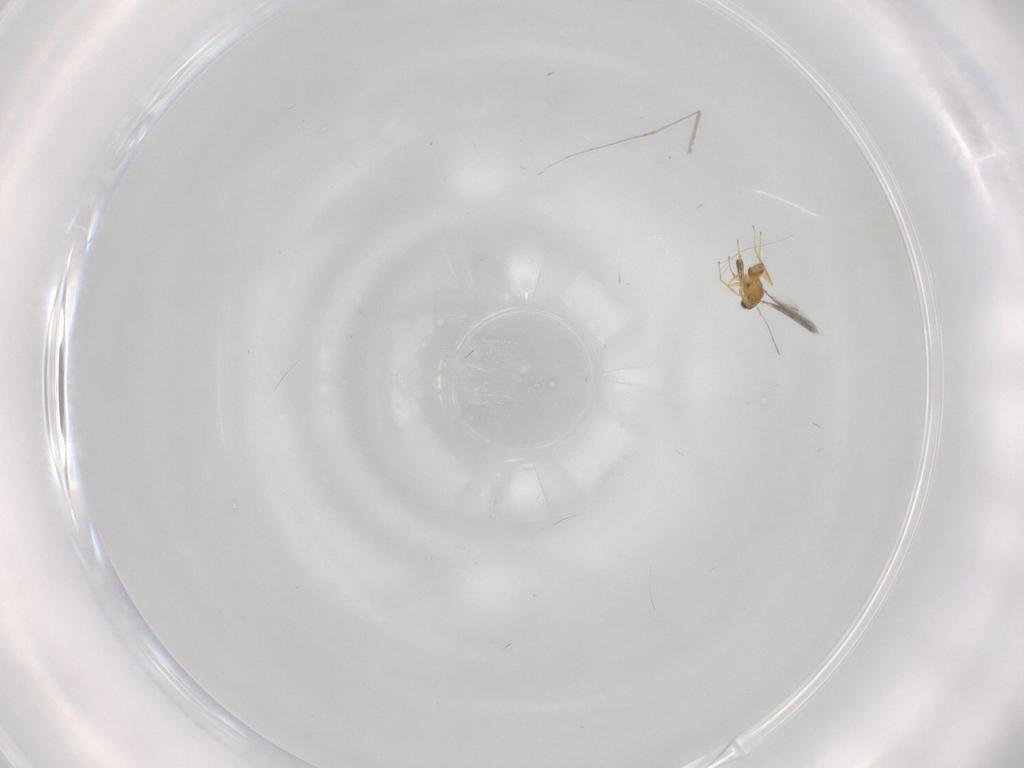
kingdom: Animalia
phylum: Arthropoda
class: Insecta
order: Hymenoptera
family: Mymaridae
